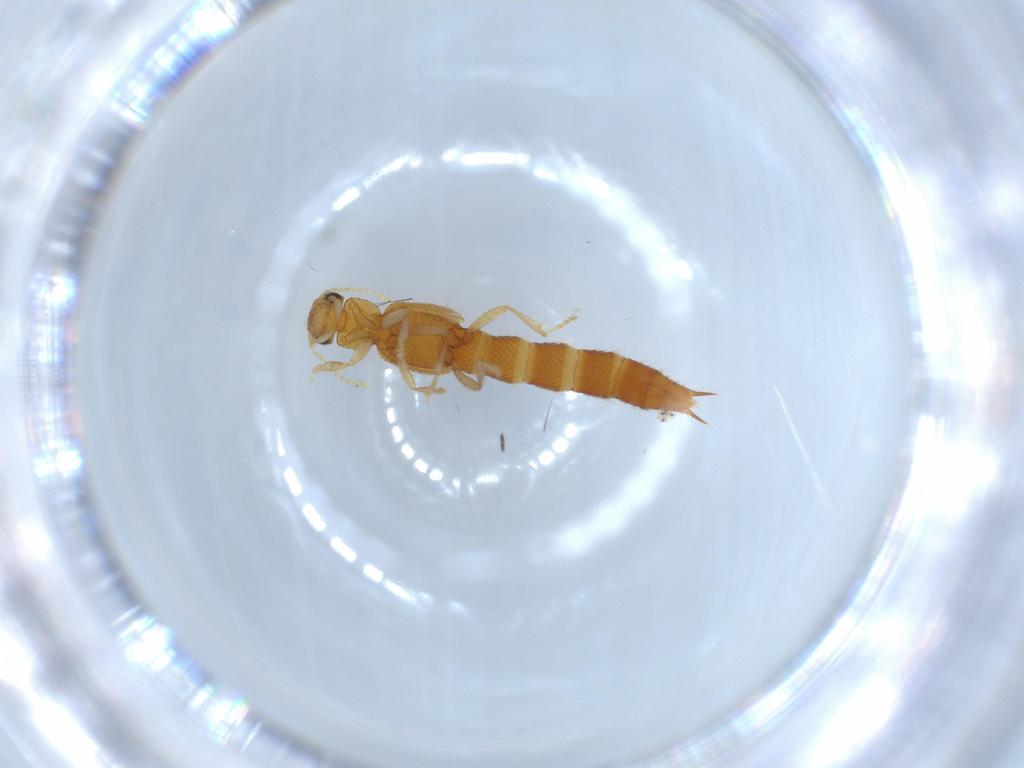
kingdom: Animalia
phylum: Arthropoda
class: Insecta
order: Coleoptera
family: Staphylinidae
